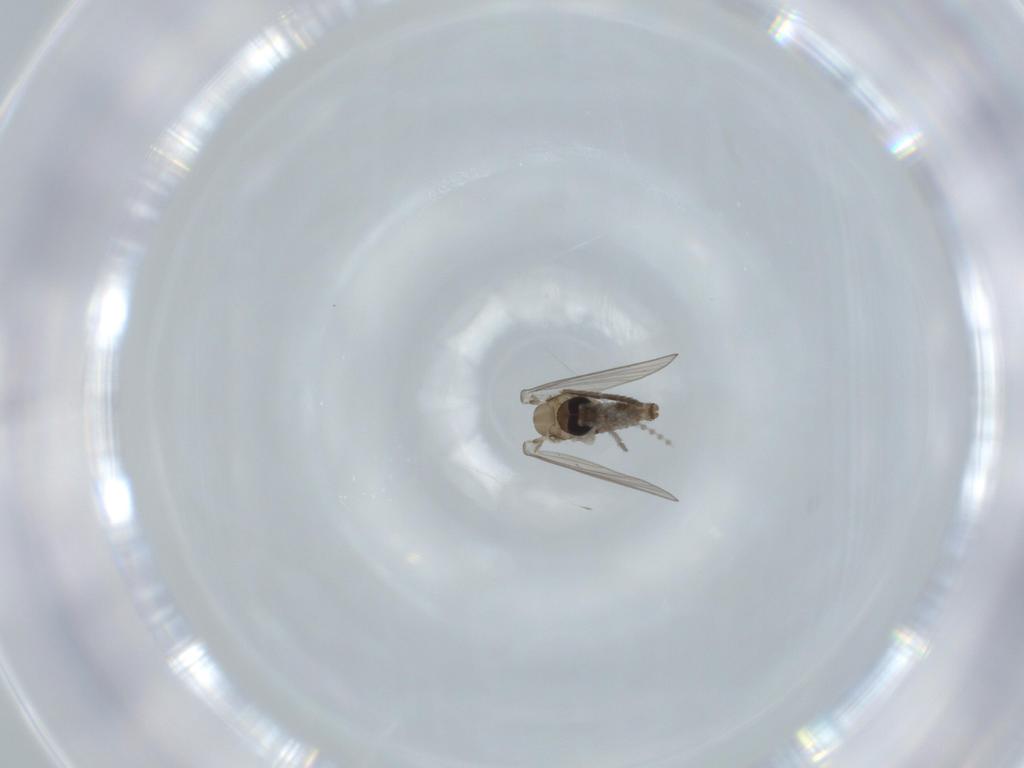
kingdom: Animalia
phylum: Arthropoda
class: Insecta
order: Diptera
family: Psychodidae
